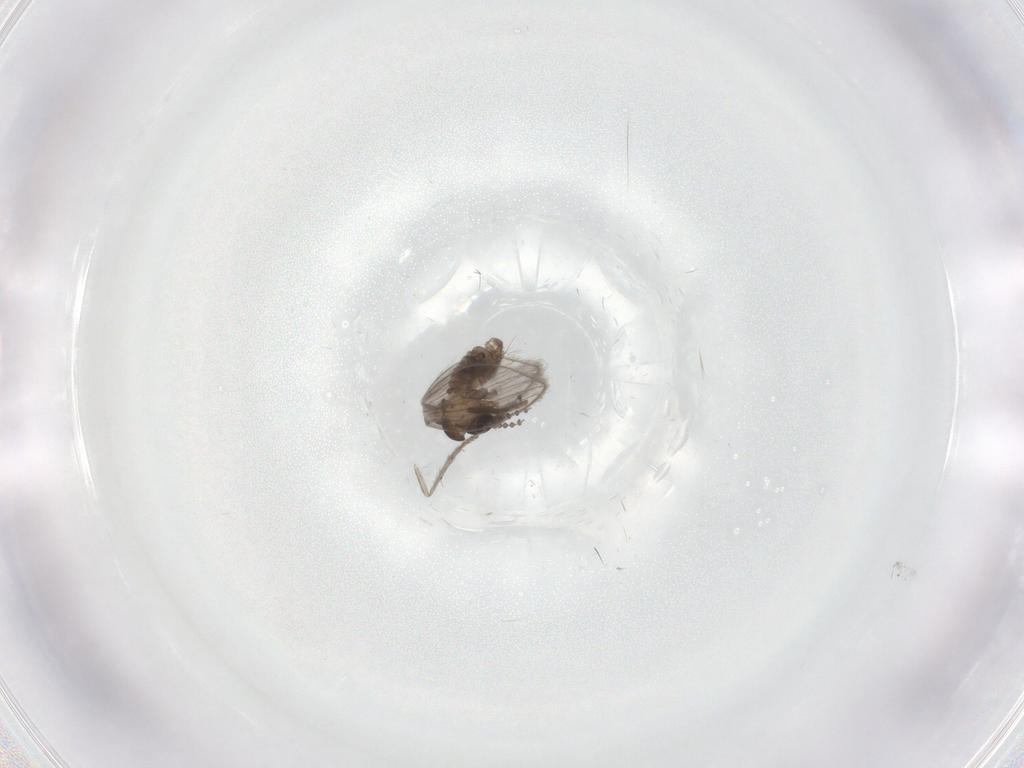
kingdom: Animalia
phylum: Arthropoda
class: Insecta
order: Diptera
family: Psychodidae
